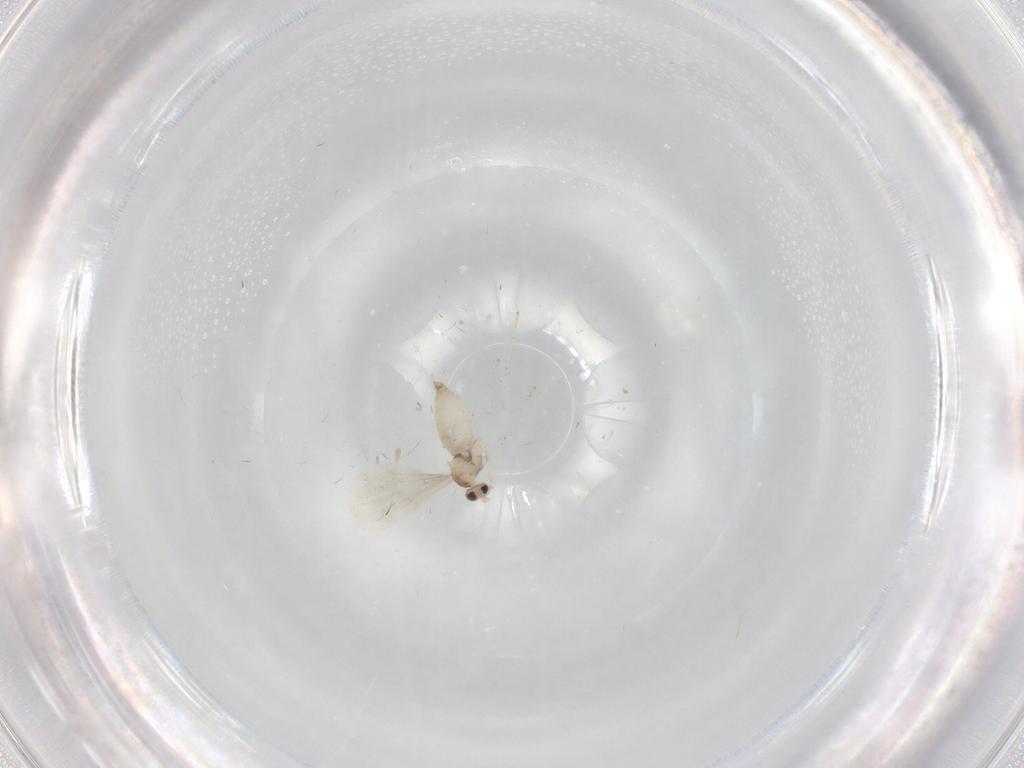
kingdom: Animalia
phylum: Arthropoda
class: Insecta
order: Diptera
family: Cecidomyiidae
